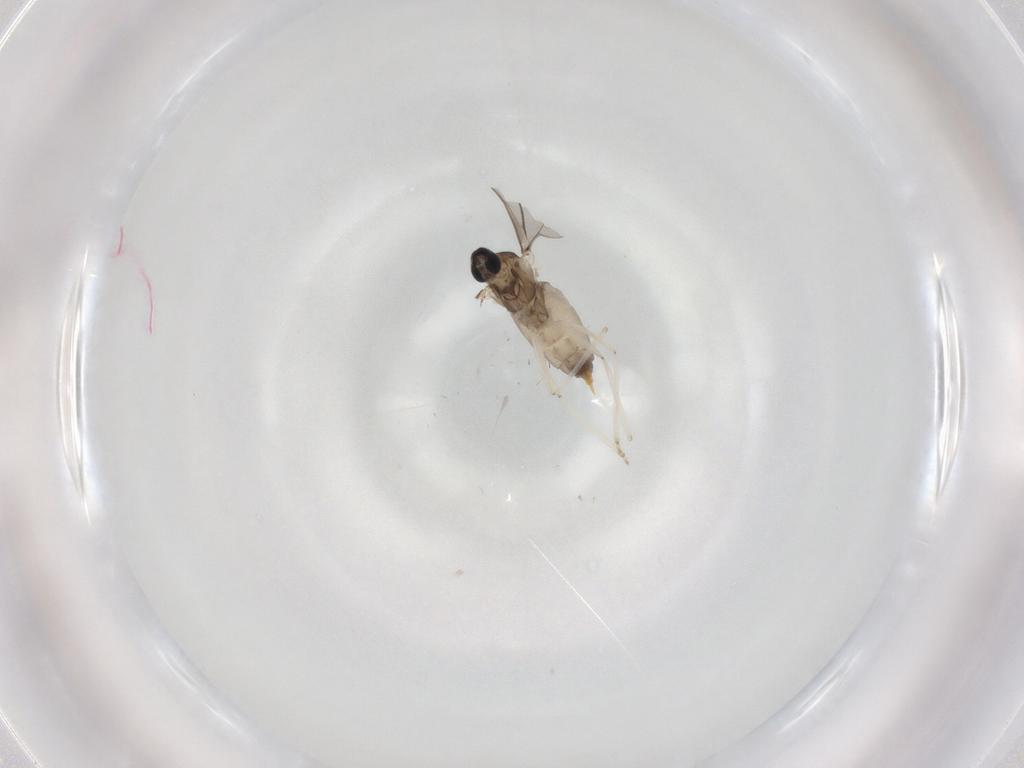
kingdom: Animalia
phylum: Arthropoda
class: Insecta
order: Diptera
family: Cecidomyiidae
